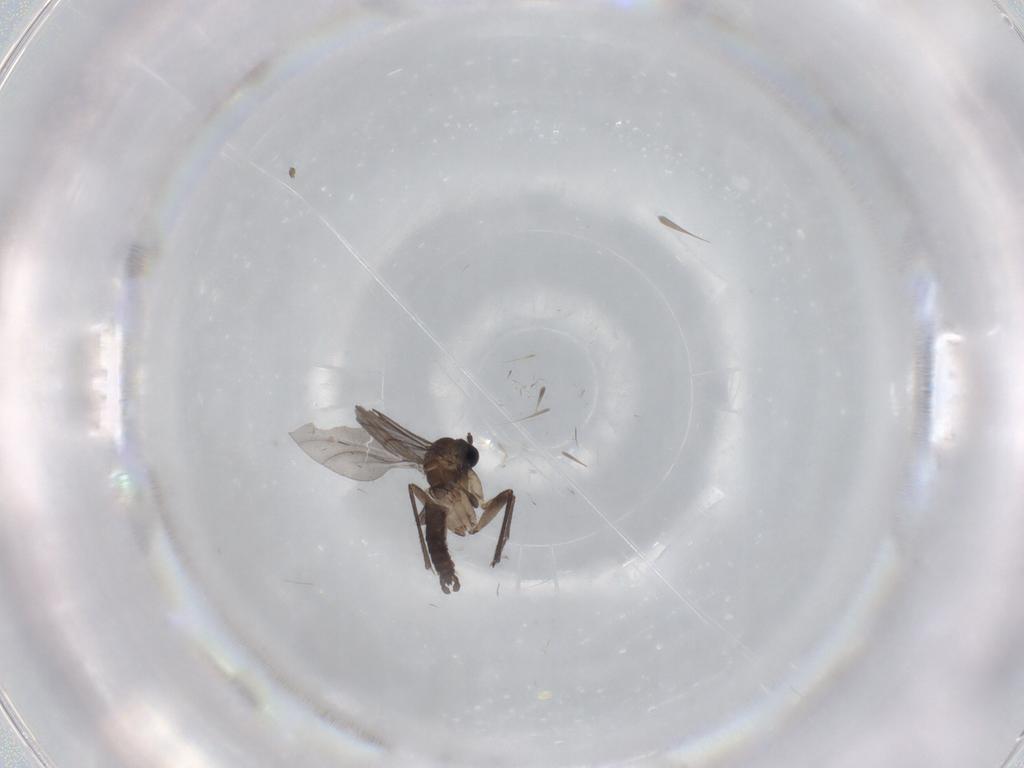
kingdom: Animalia
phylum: Arthropoda
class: Insecta
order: Diptera
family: Sciaridae
